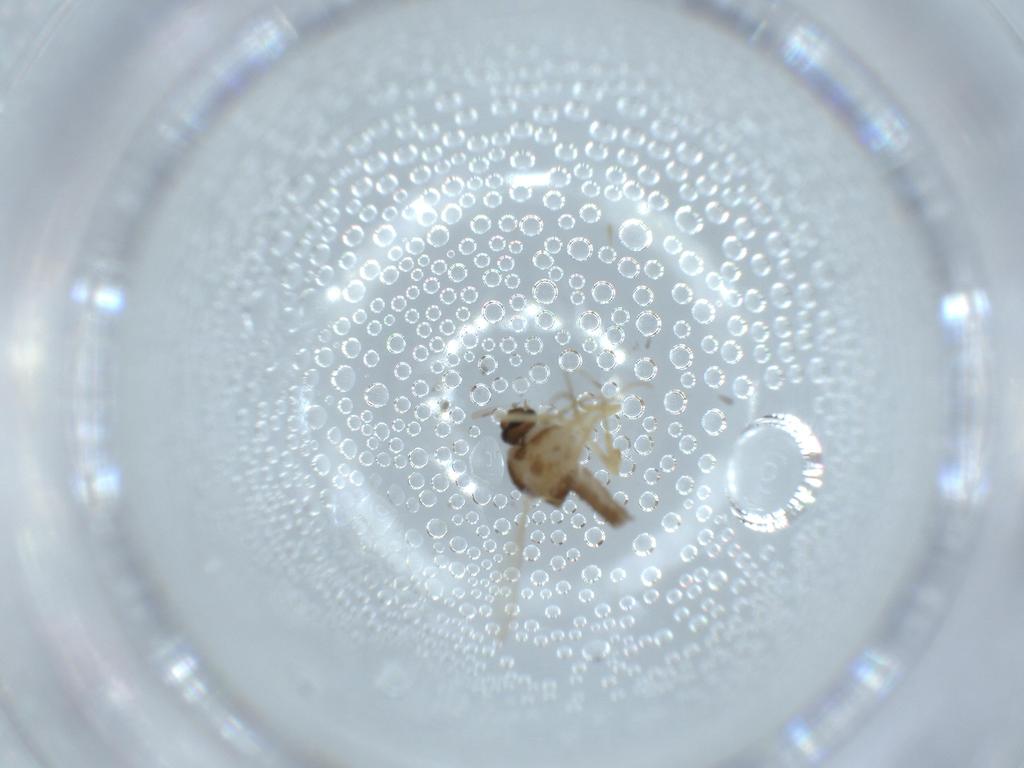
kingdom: Animalia
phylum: Arthropoda
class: Insecta
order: Diptera
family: Ceratopogonidae
